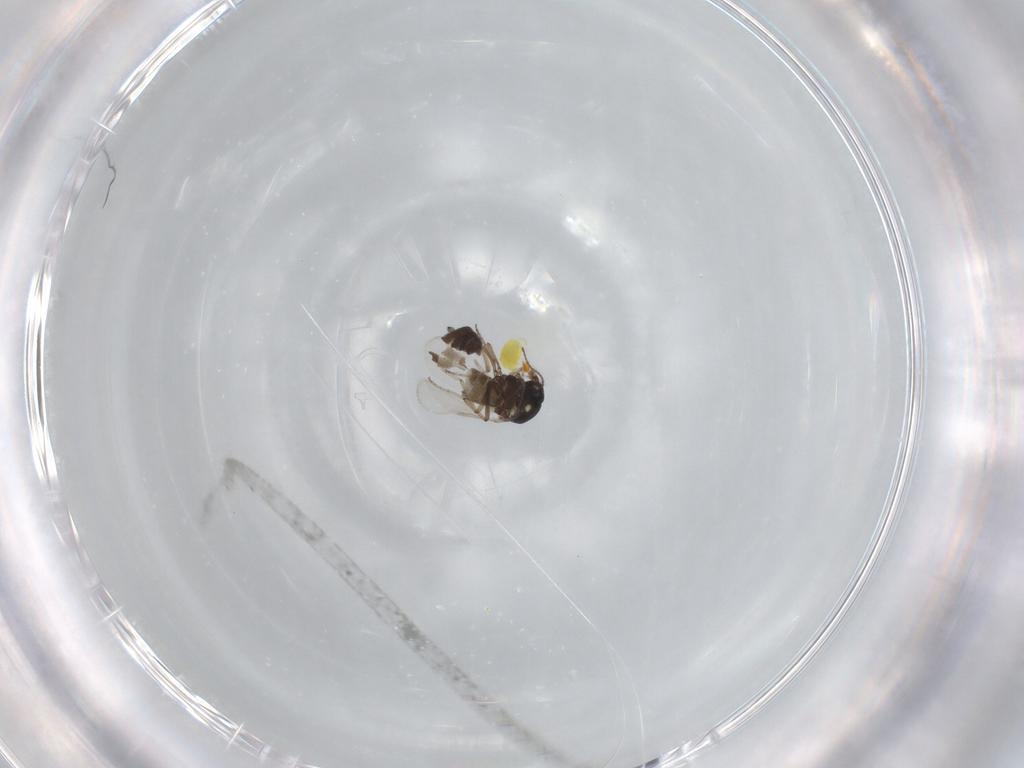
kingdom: Animalia
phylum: Arthropoda
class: Insecta
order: Diptera
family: Ceratopogonidae
